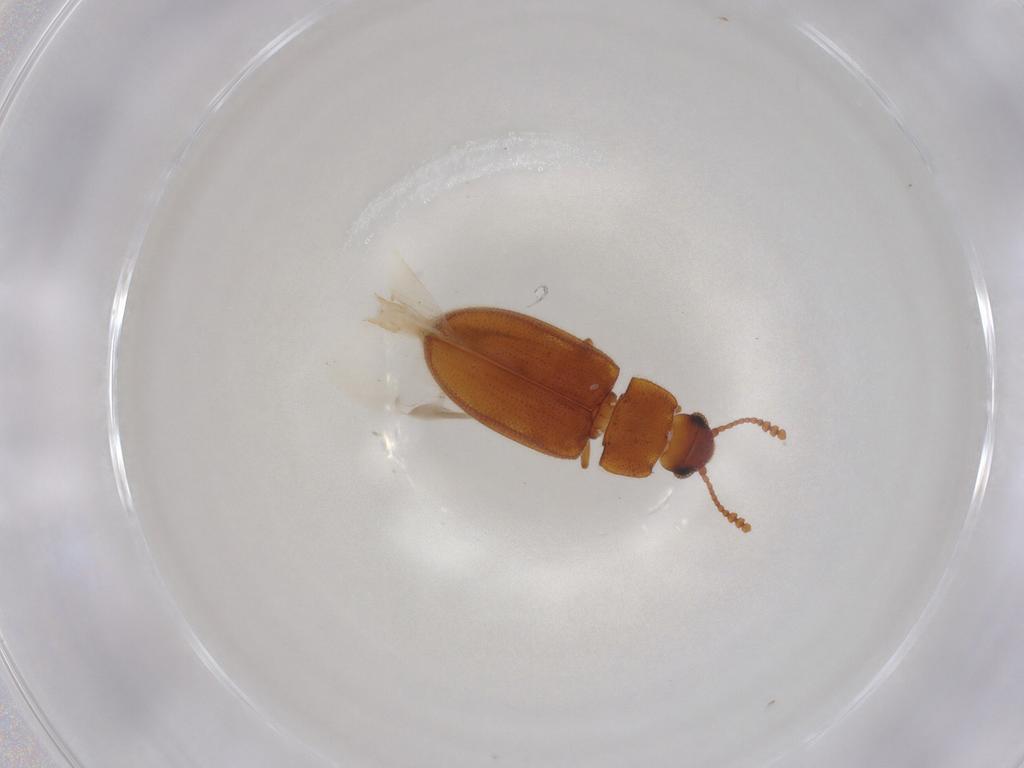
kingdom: Animalia
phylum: Arthropoda
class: Insecta
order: Coleoptera
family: Erotylidae
